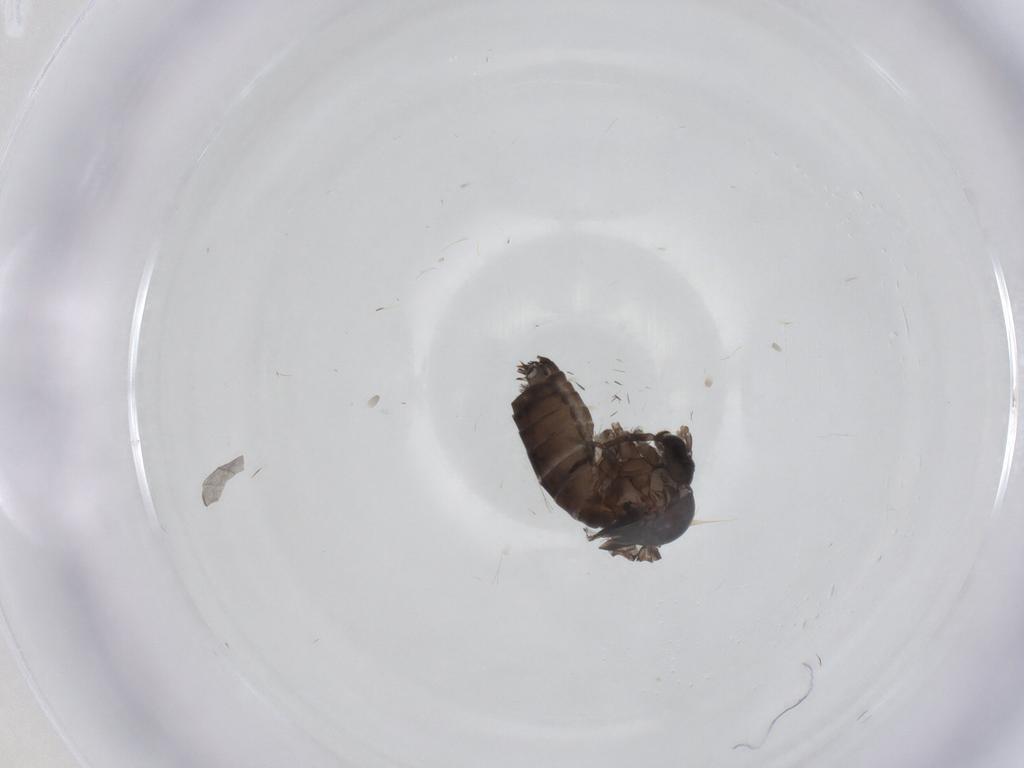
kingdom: Animalia
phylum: Arthropoda
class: Insecta
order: Diptera
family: Psychodidae
